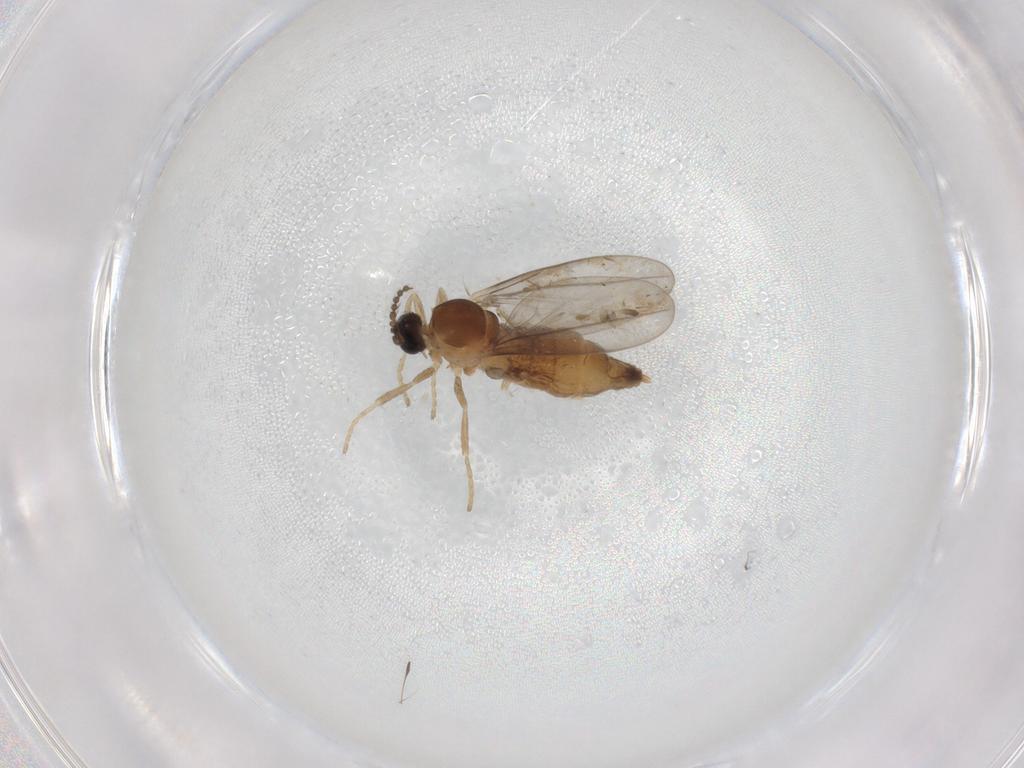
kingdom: Animalia
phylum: Arthropoda
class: Insecta
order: Diptera
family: Cecidomyiidae
